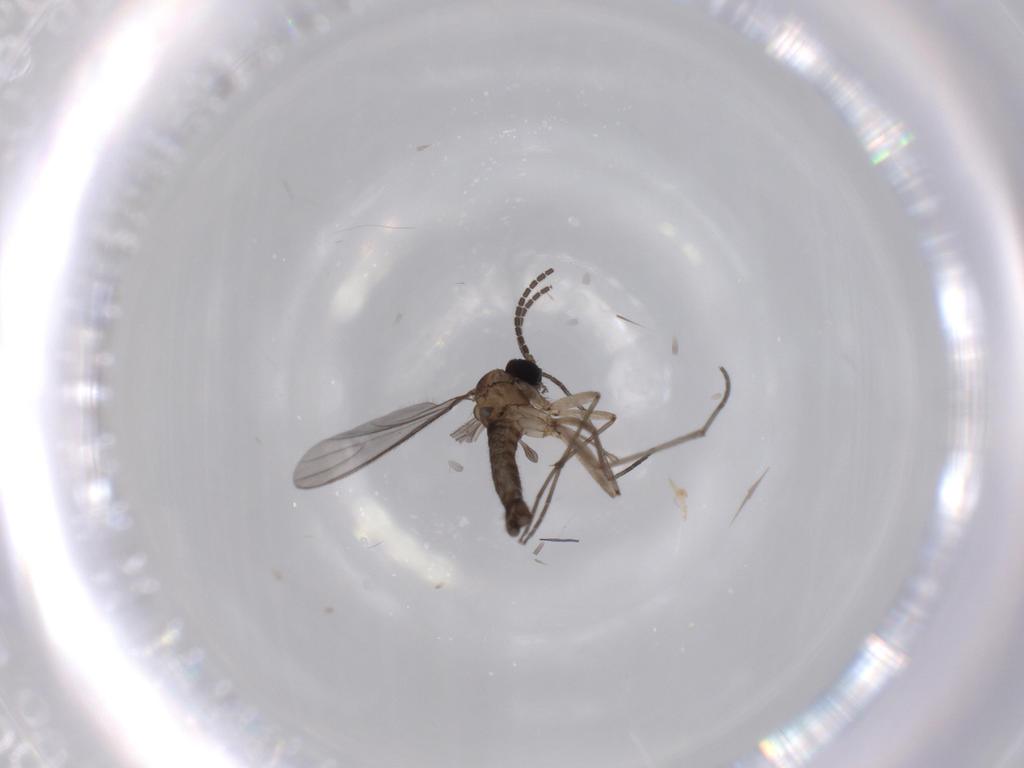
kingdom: Animalia
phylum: Arthropoda
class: Insecta
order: Diptera
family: Sciaridae
